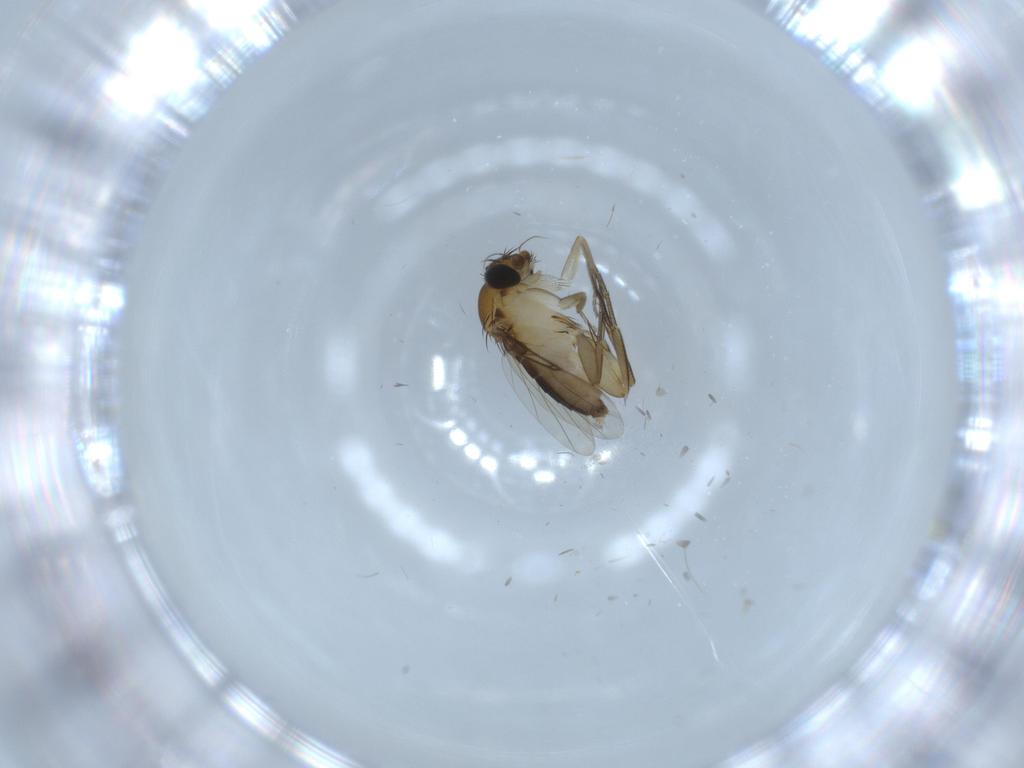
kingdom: Animalia
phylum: Arthropoda
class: Insecta
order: Diptera
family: Phoridae
